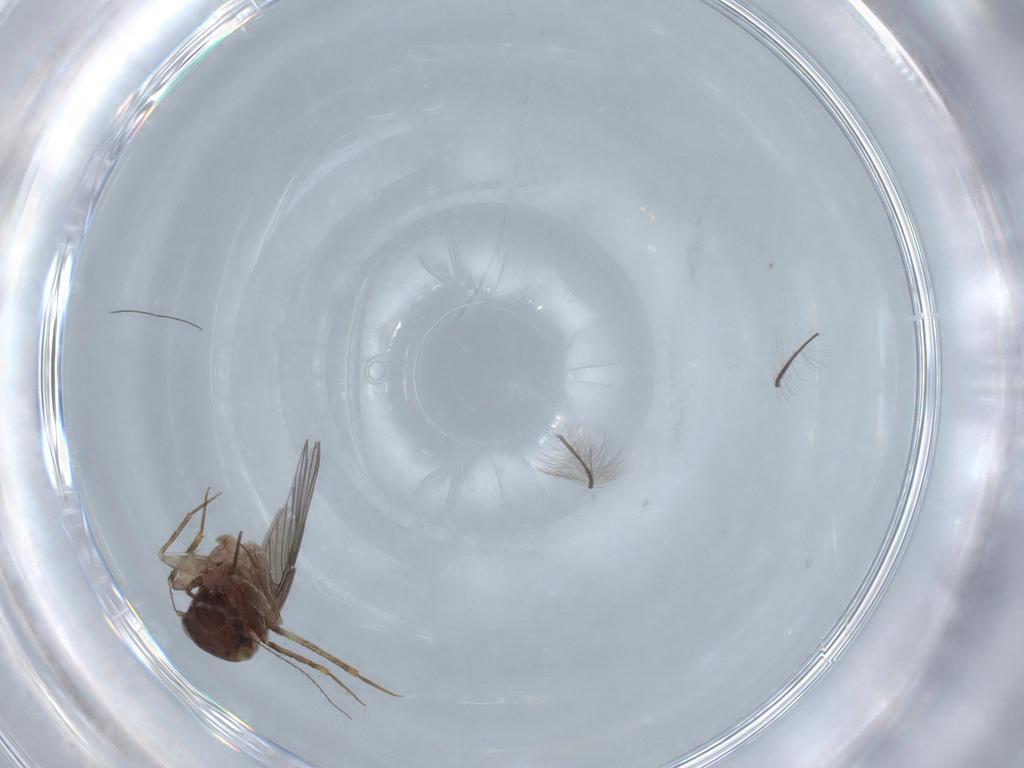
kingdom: Animalia
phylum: Arthropoda
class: Insecta
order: Psocodea
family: Lepidopsocidae
